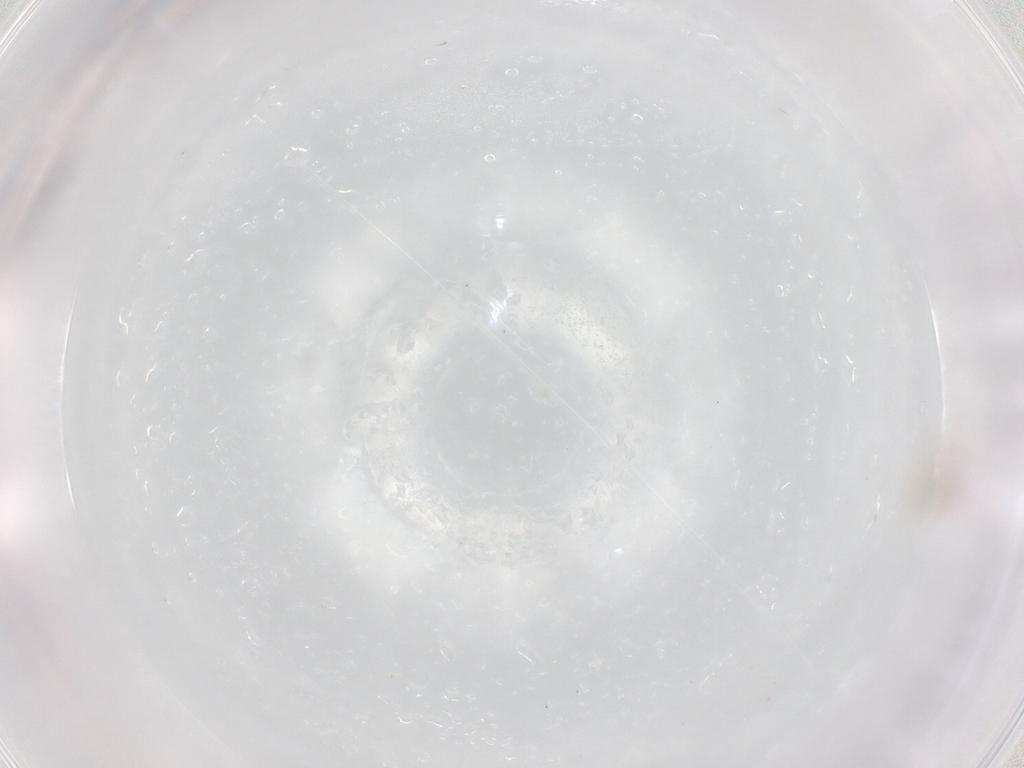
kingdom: Animalia
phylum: Arthropoda
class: Arachnida
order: Mesostigmata
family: Melicharidae
